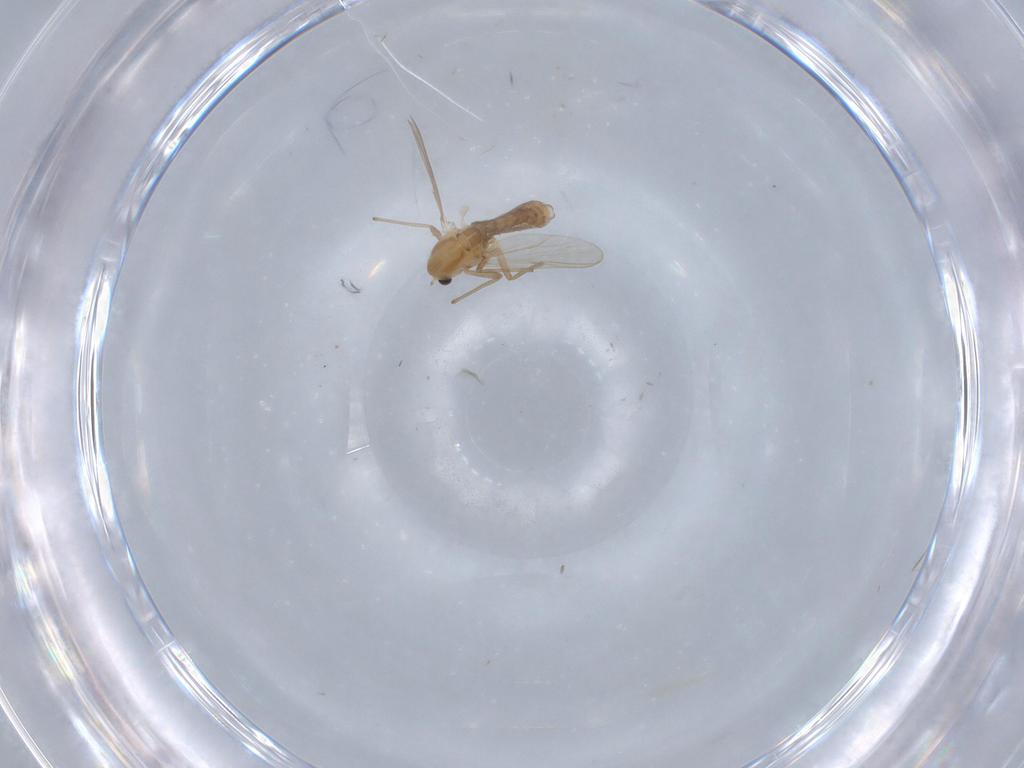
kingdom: Animalia
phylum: Arthropoda
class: Insecta
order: Diptera
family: Chironomidae
